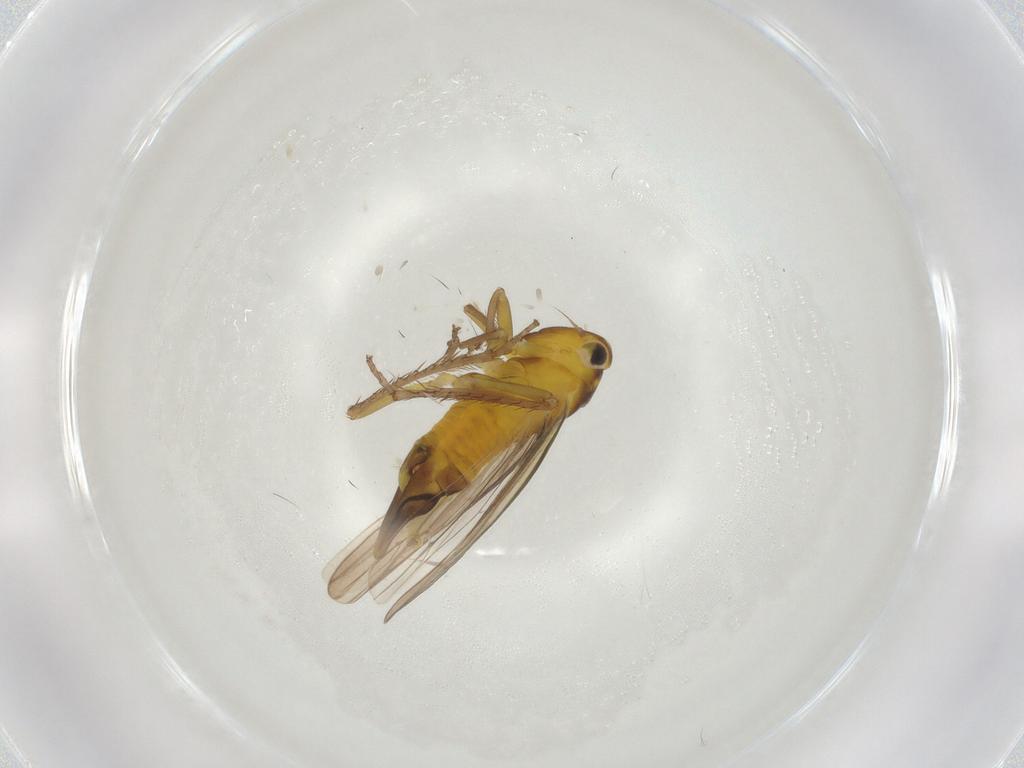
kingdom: Animalia
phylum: Arthropoda
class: Insecta
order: Hemiptera
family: Cicadellidae
